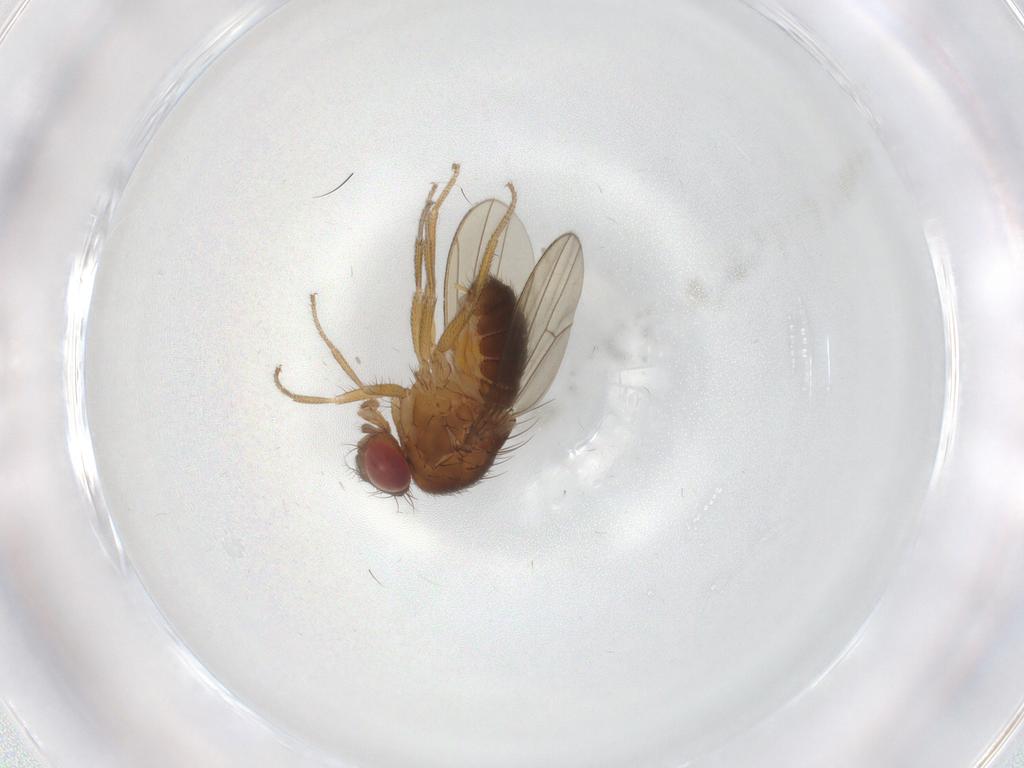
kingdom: Animalia
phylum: Arthropoda
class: Insecta
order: Diptera
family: Drosophilidae
